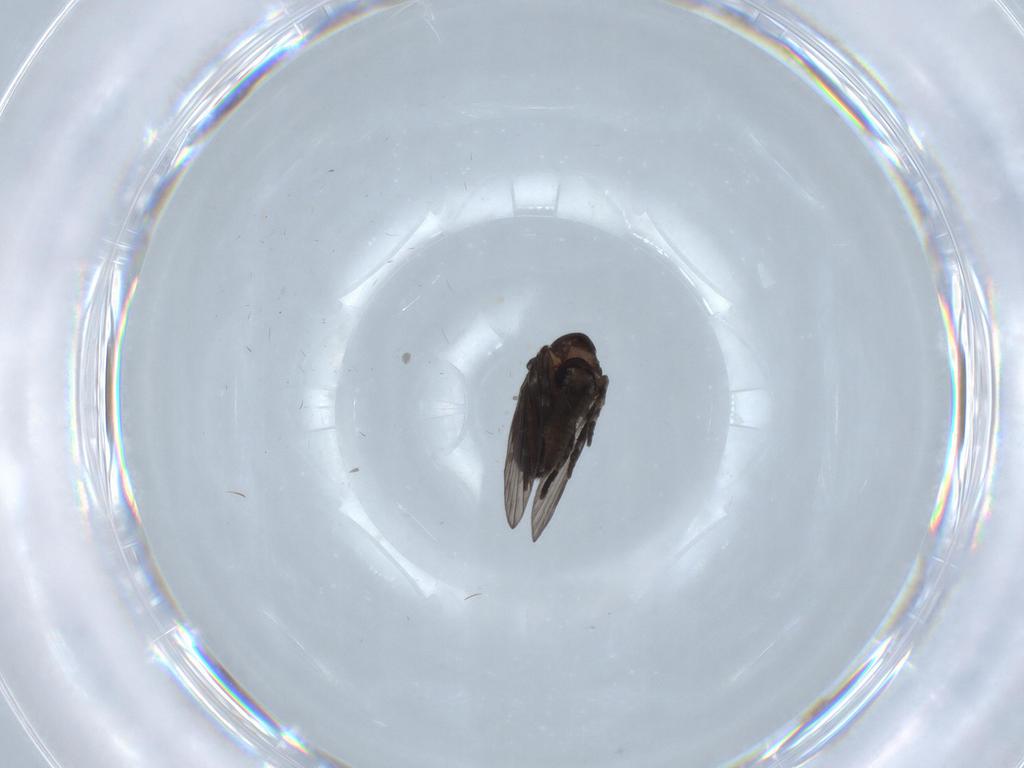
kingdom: Animalia
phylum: Arthropoda
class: Insecta
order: Diptera
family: Psychodidae
